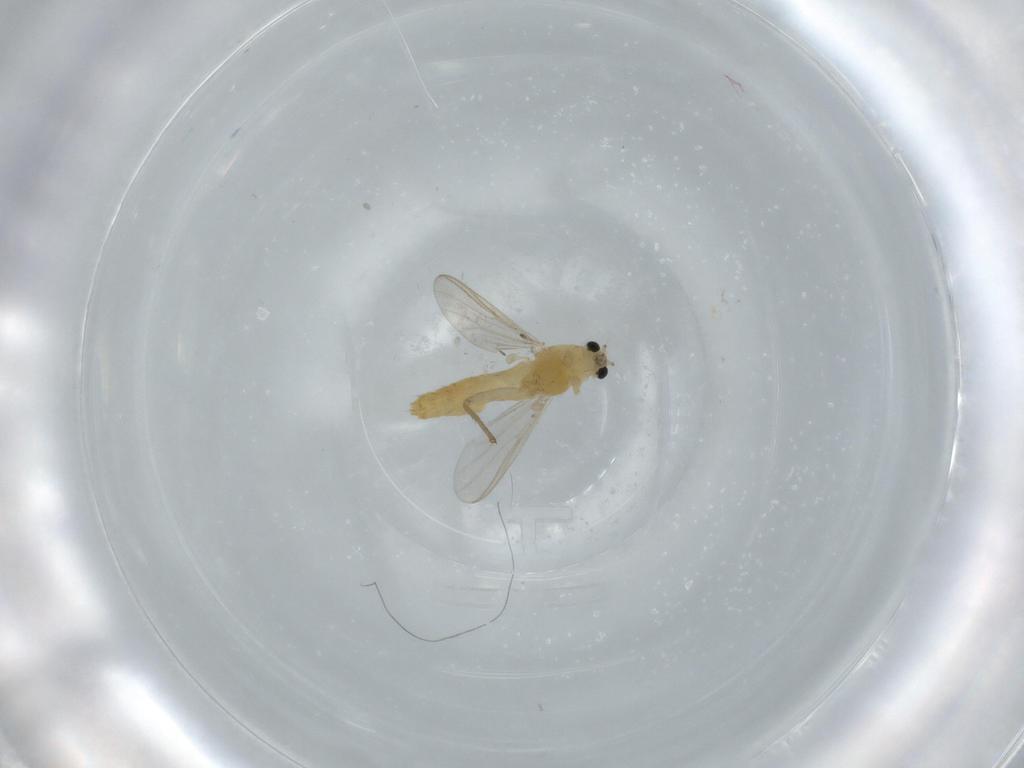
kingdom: Animalia
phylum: Arthropoda
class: Insecta
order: Diptera
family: Chironomidae
